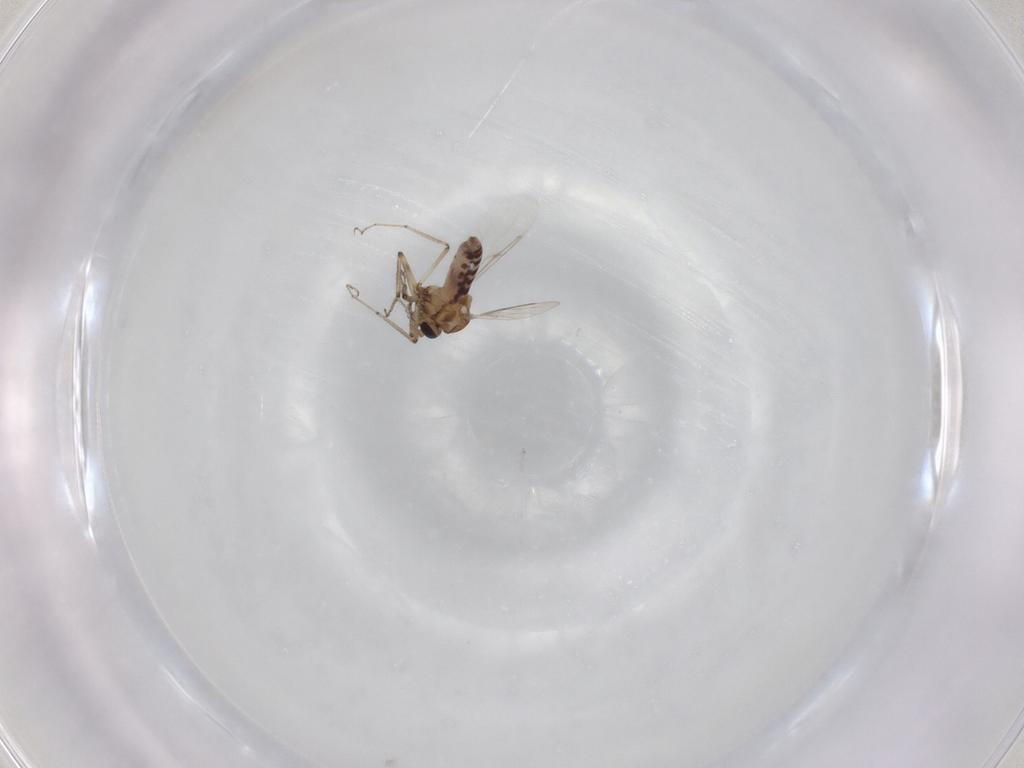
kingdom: Animalia
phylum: Arthropoda
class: Insecta
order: Diptera
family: Ceratopogonidae
